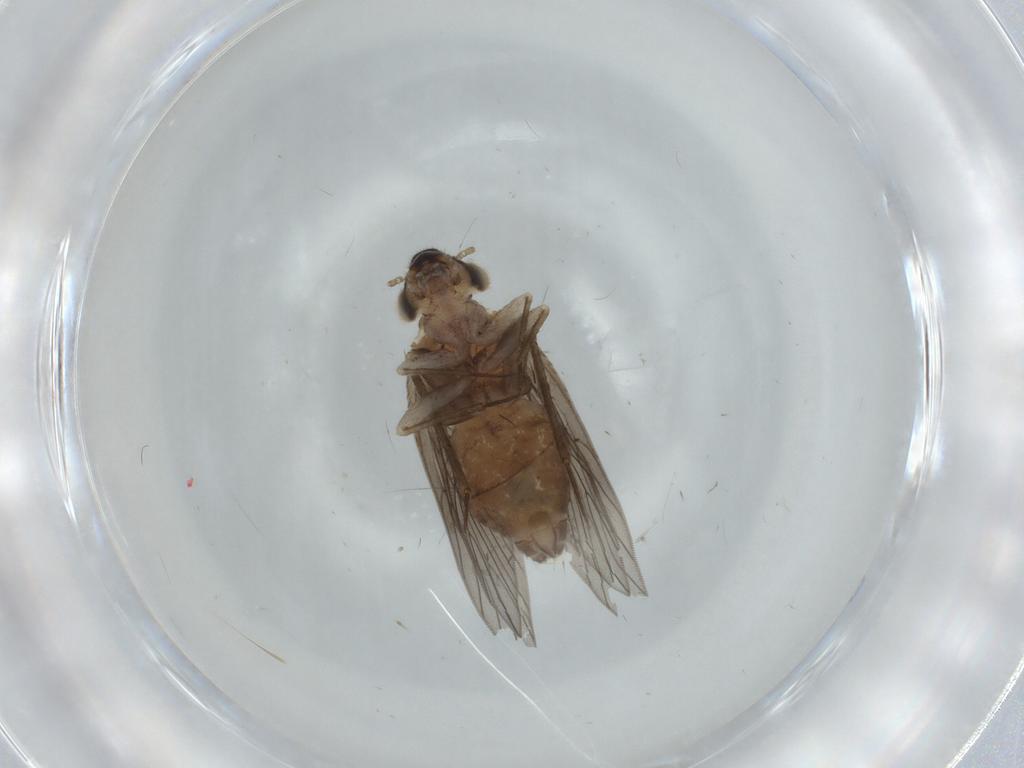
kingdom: Animalia
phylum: Arthropoda
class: Insecta
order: Psocodea
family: Lepidopsocidae
